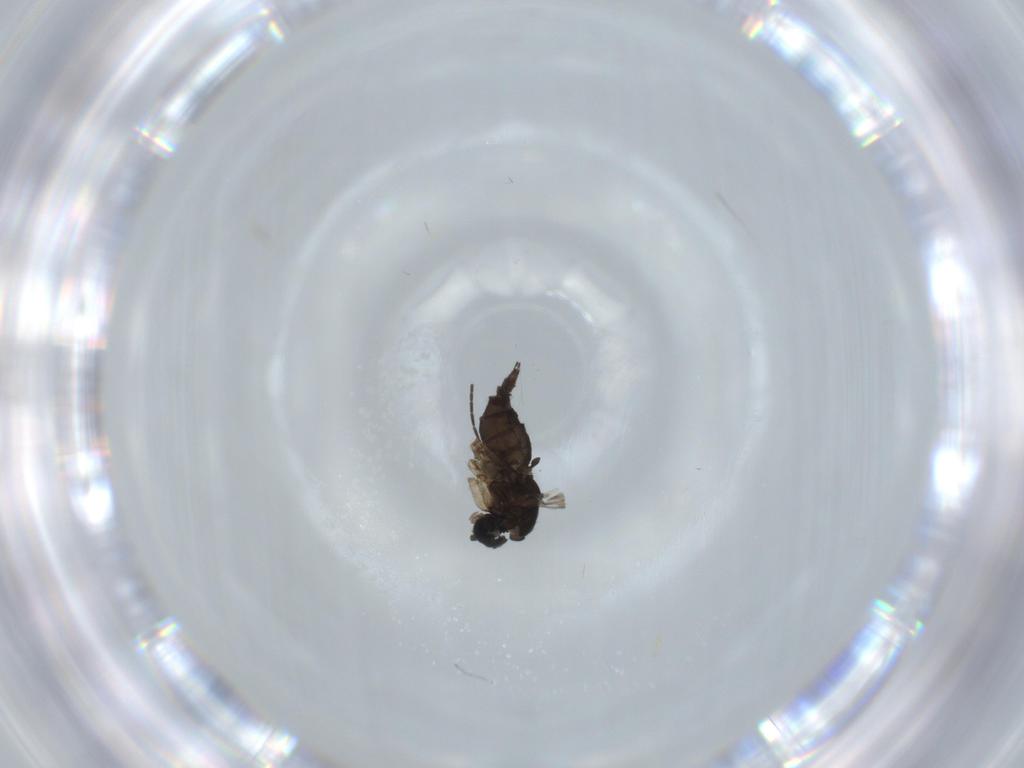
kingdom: Animalia
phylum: Arthropoda
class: Insecta
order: Diptera
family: Sciaridae
